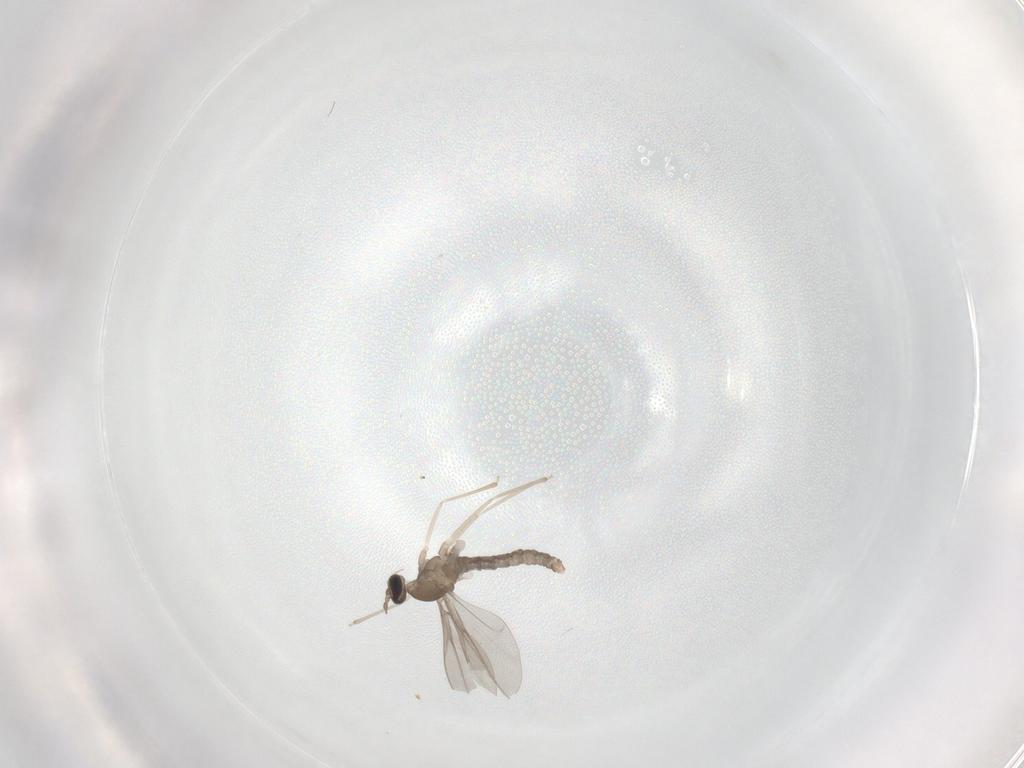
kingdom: Animalia
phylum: Arthropoda
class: Insecta
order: Diptera
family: Cecidomyiidae
